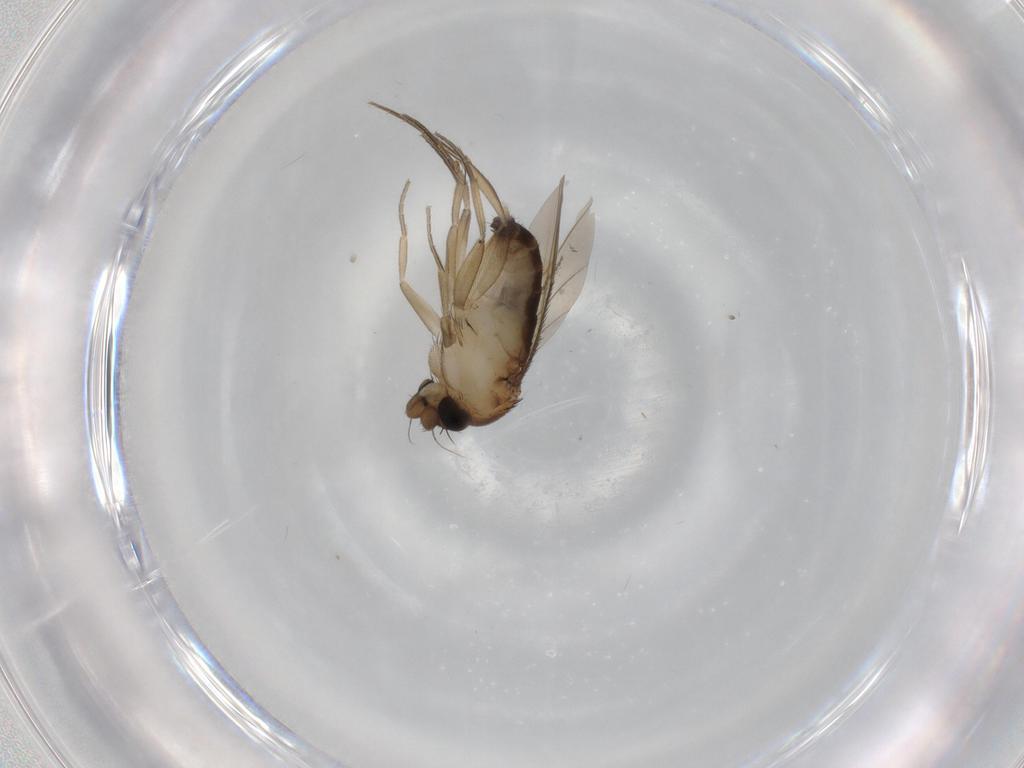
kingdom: Animalia
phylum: Arthropoda
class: Insecta
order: Diptera
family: Phoridae
